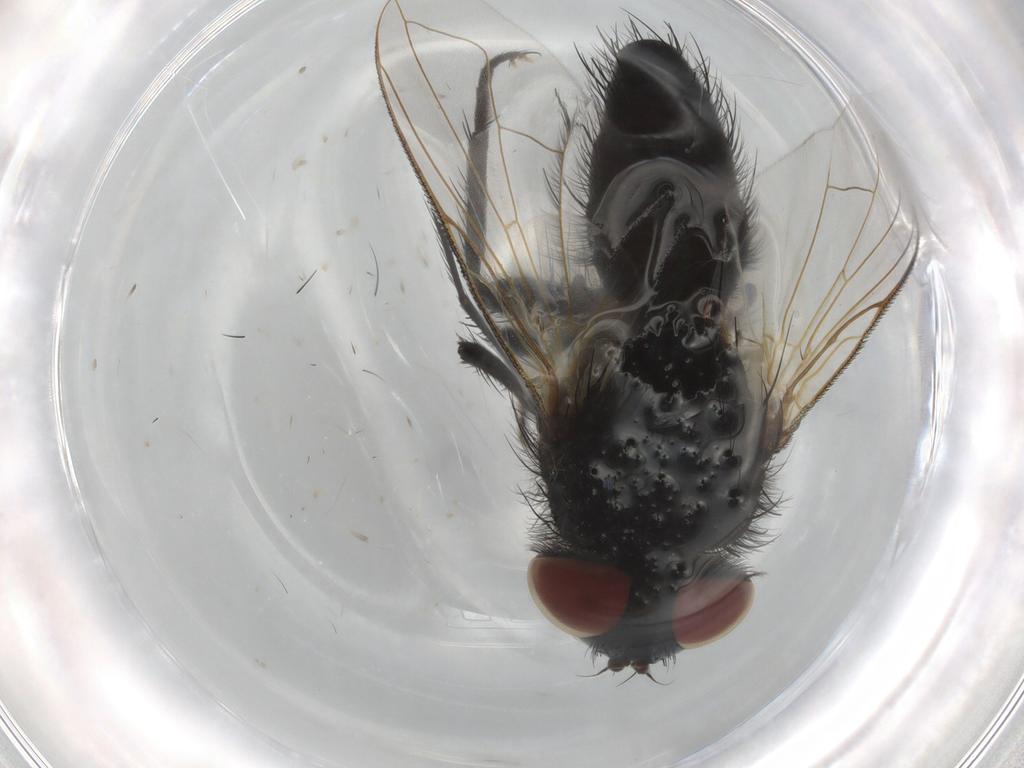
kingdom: Animalia
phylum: Arthropoda
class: Insecta
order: Diptera
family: Tachinidae
